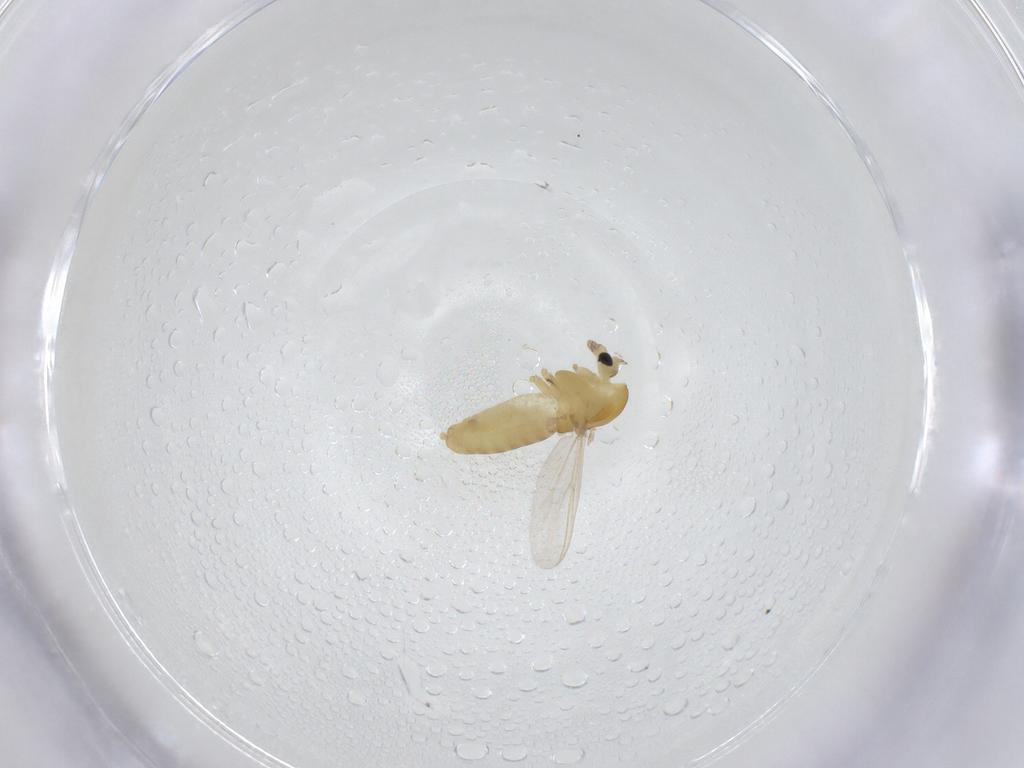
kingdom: Animalia
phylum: Arthropoda
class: Insecta
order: Diptera
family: Chironomidae
